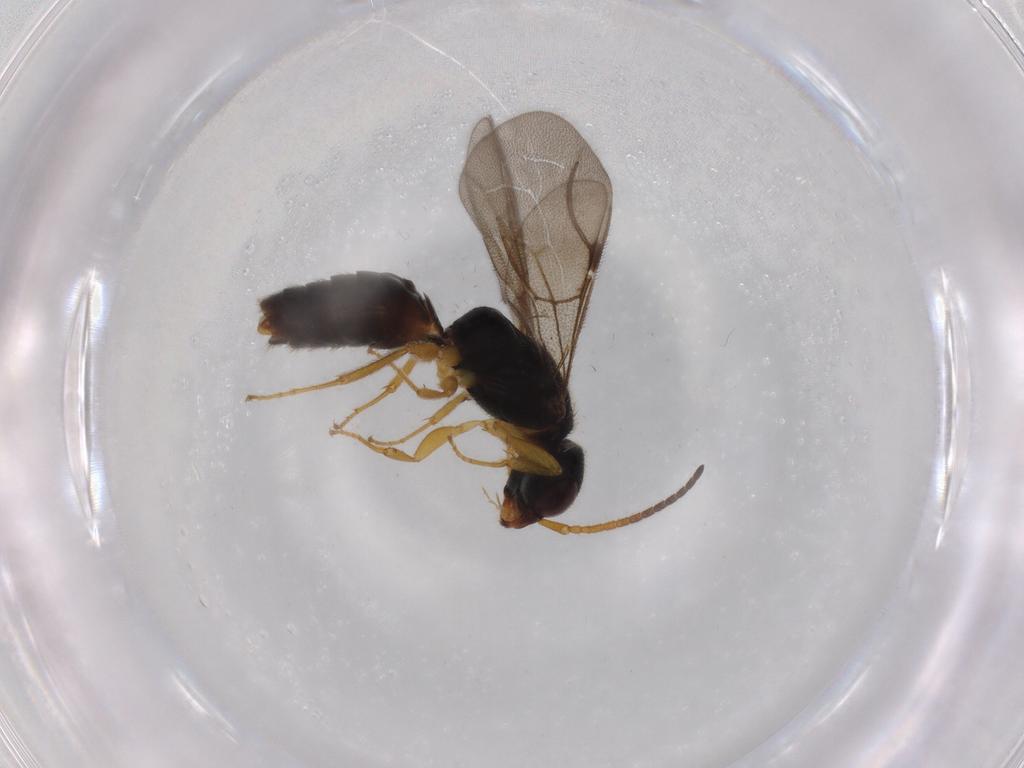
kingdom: Animalia
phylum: Arthropoda
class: Insecta
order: Hymenoptera
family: Bethylidae
